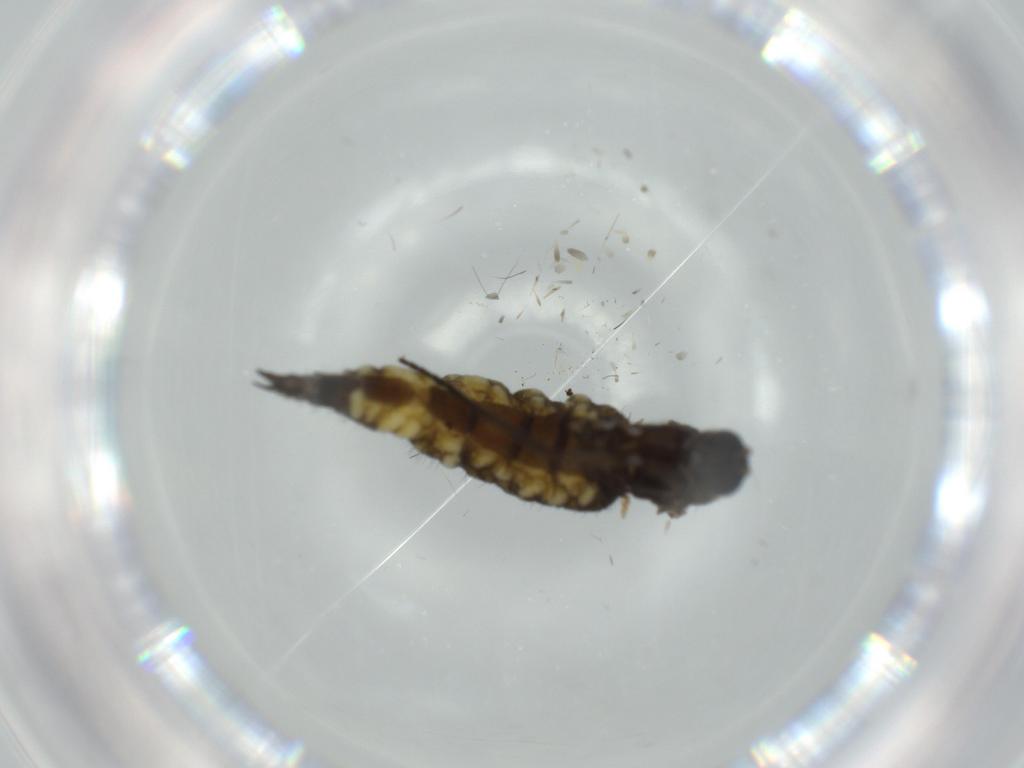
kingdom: Animalia
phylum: Arthropoda
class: Insecta
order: Diptera
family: Sciaridae
